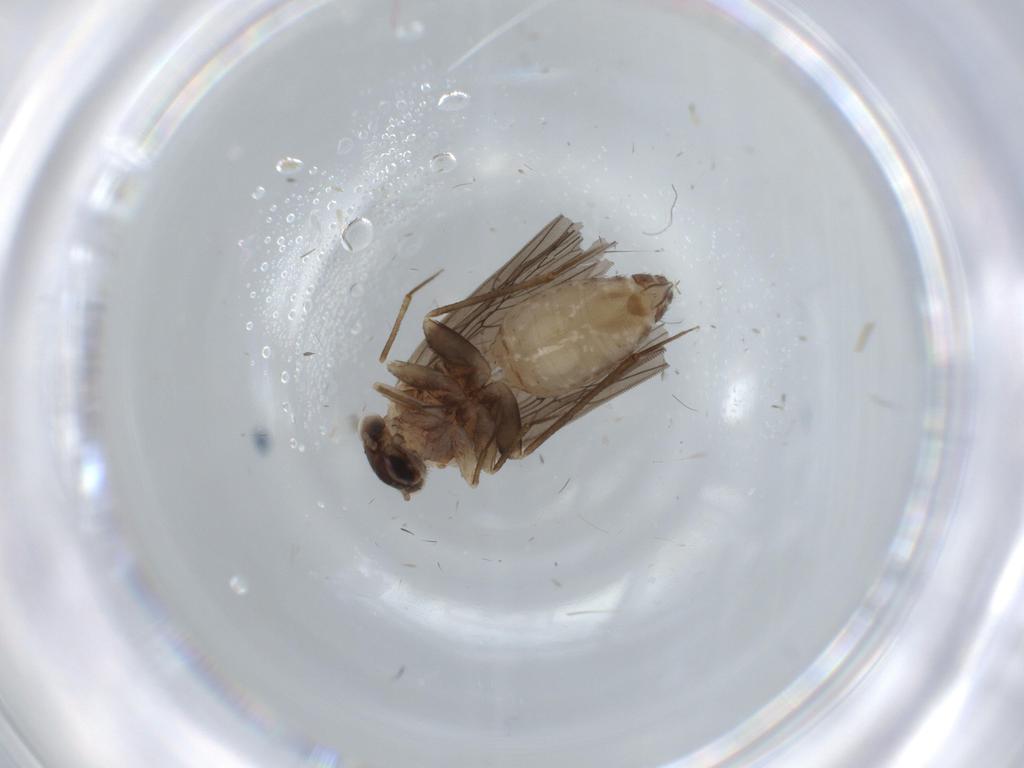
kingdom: Animalia
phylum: Arthropoda
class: Insecta
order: Psocodea
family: Lepidopsocidae
